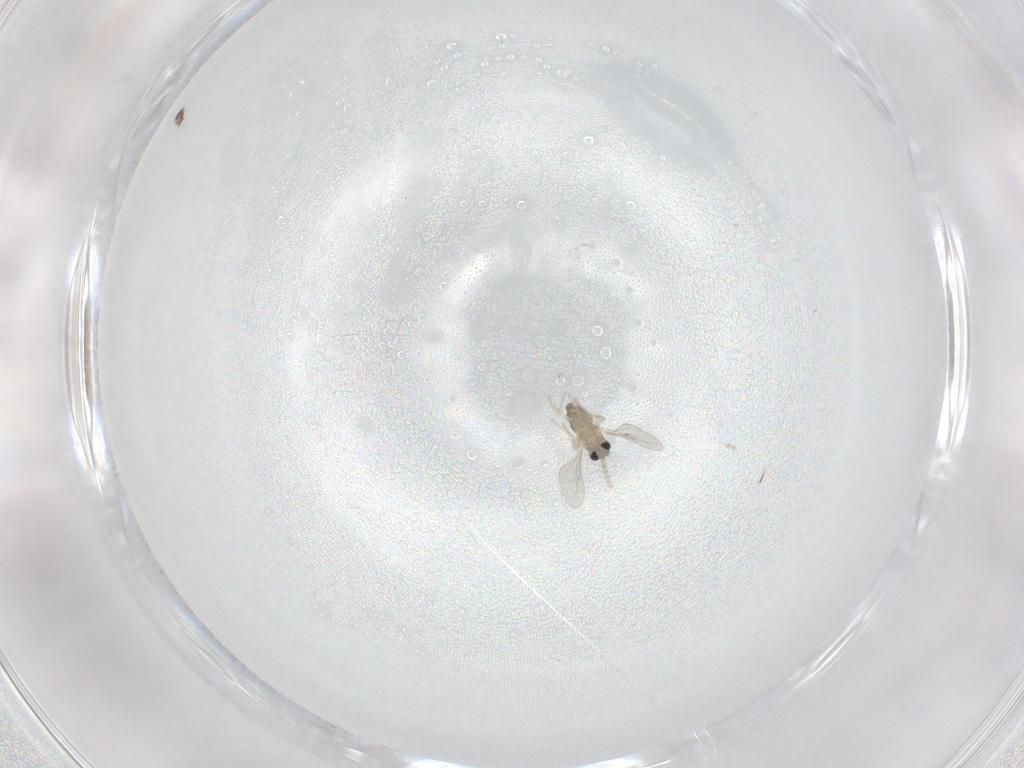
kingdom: Animalia
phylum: Arthropoda
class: Insecta
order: Diptera
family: Cecidomyiidae
